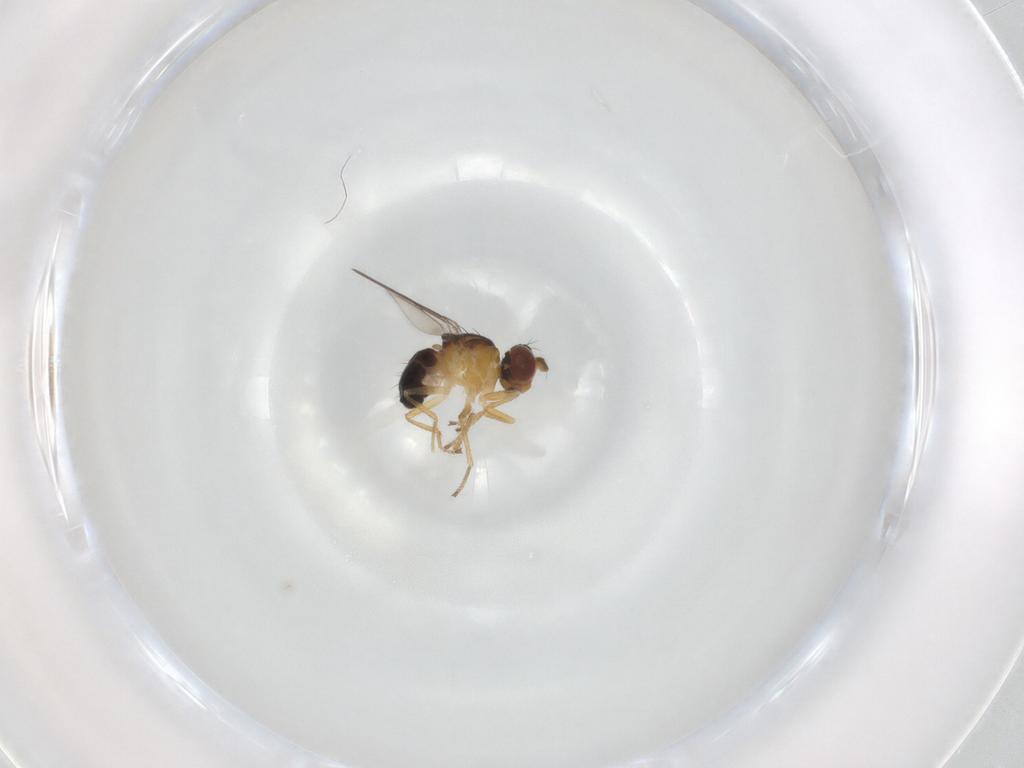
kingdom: Animalia
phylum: Arthropoda
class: Insecta
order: Diptera
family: Ephydridae
